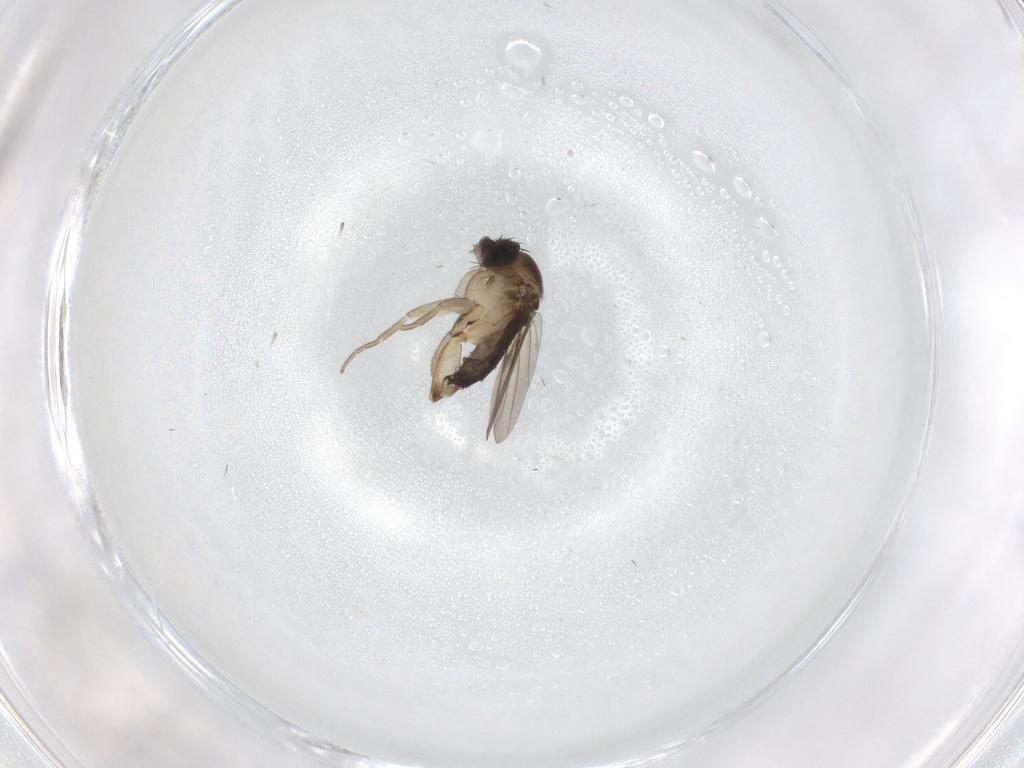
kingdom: Animalia
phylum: Arthropoda
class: Insecta
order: Diptera
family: Phoridae
